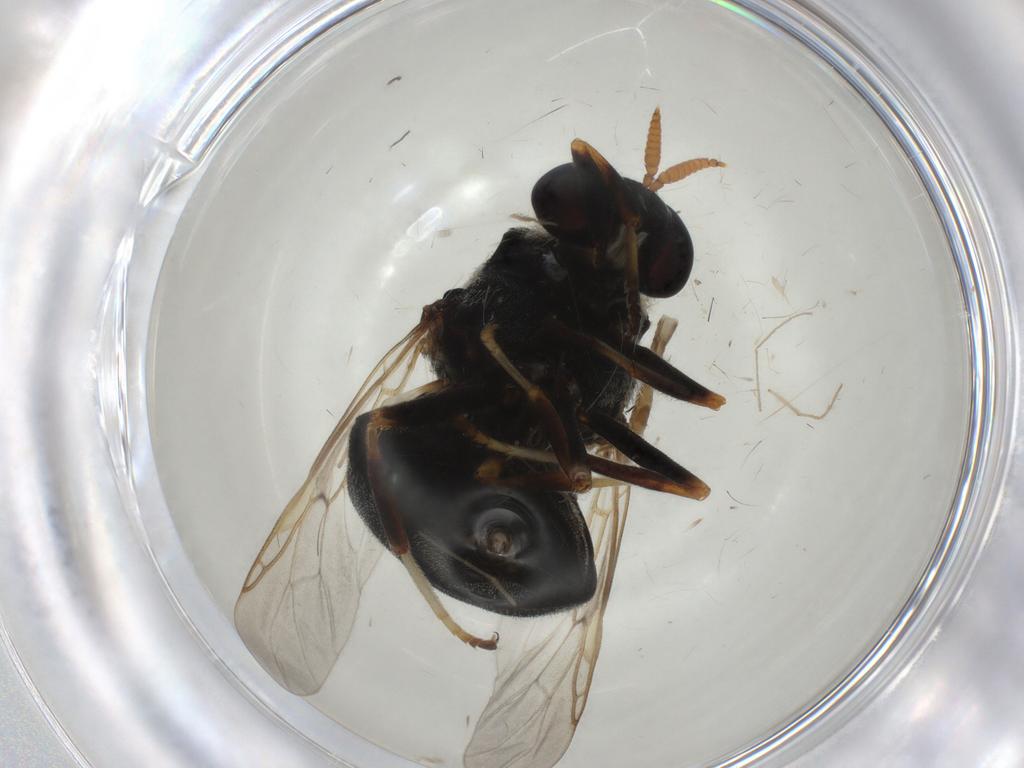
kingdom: Animalia
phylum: Arthropoda
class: Insecta
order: Diptera
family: Stratiomyidae
